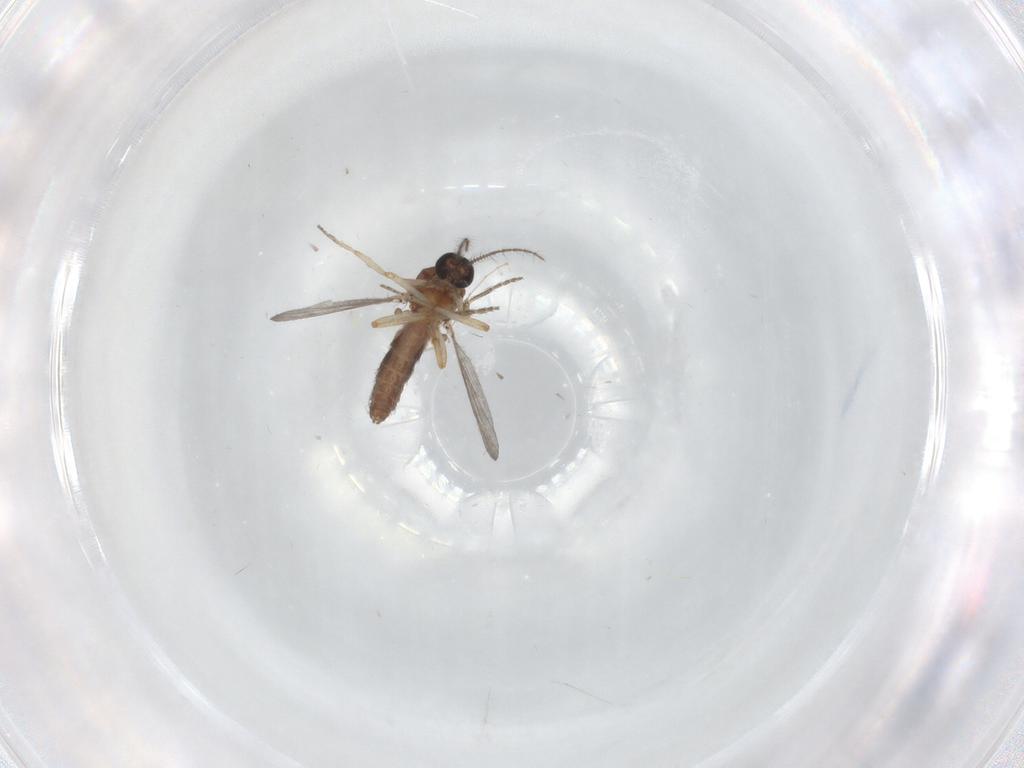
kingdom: Animalia
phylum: Arthropoda
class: Insecta
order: Diptera
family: Ceratopogonidae
